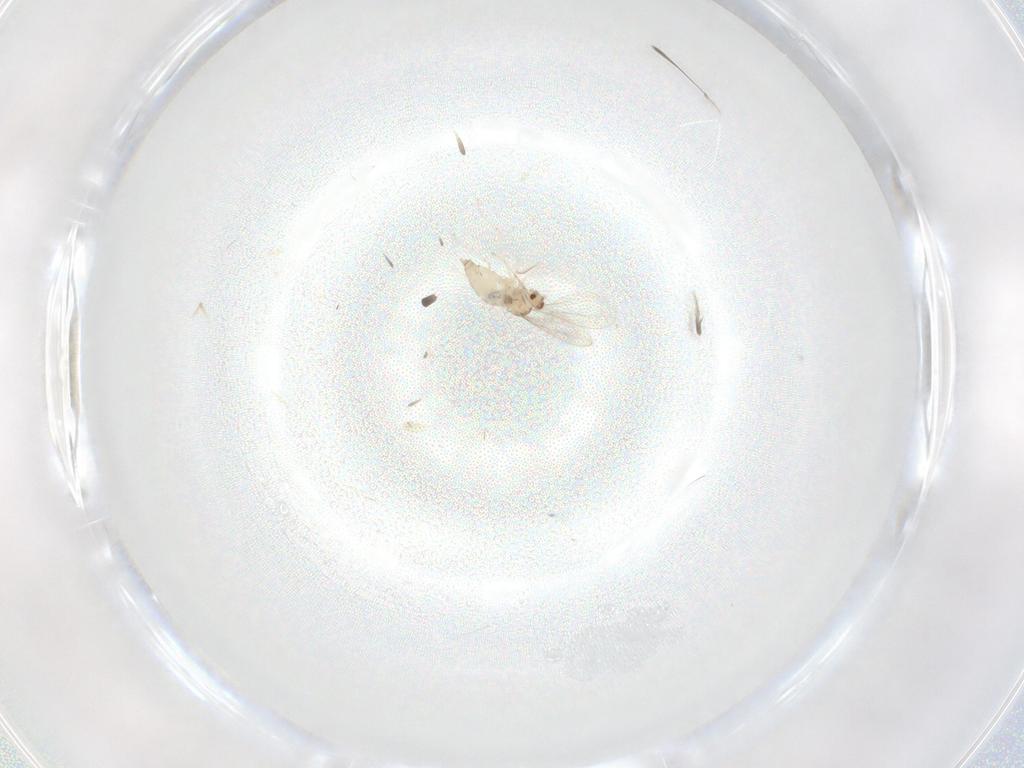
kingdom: Animalia
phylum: Arthropoda
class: Insecta
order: Diptera
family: Cecidomyiidae
